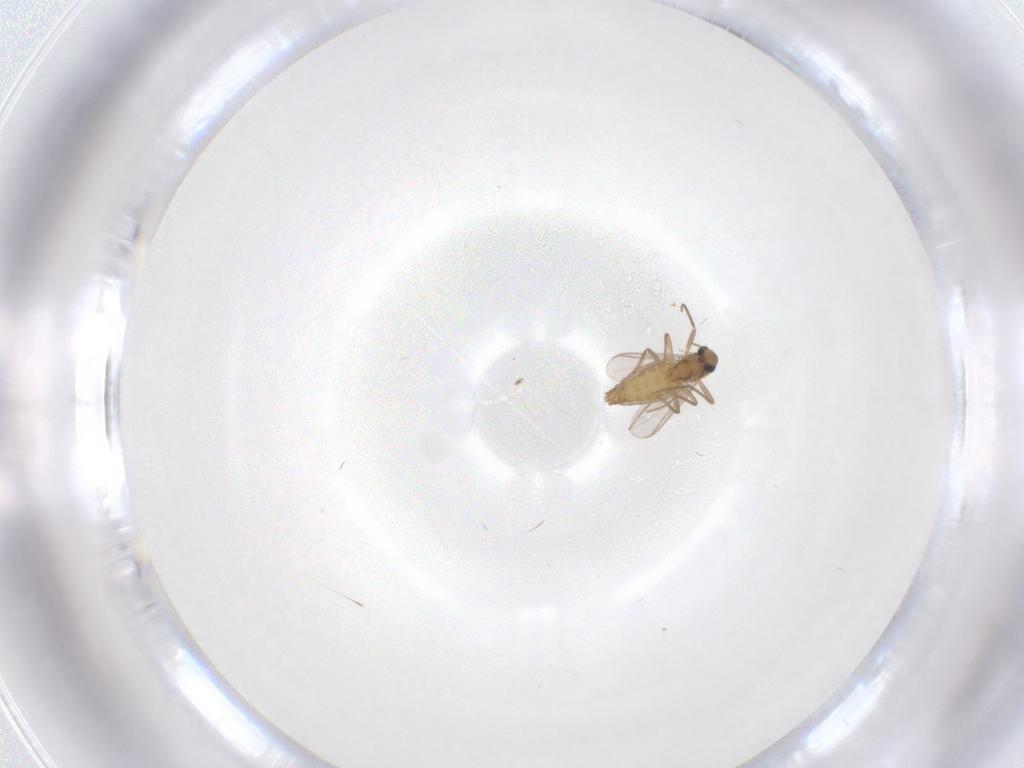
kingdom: Animalia
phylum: Arthropoda
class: Insecta
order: Diptera
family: Chironomidae
